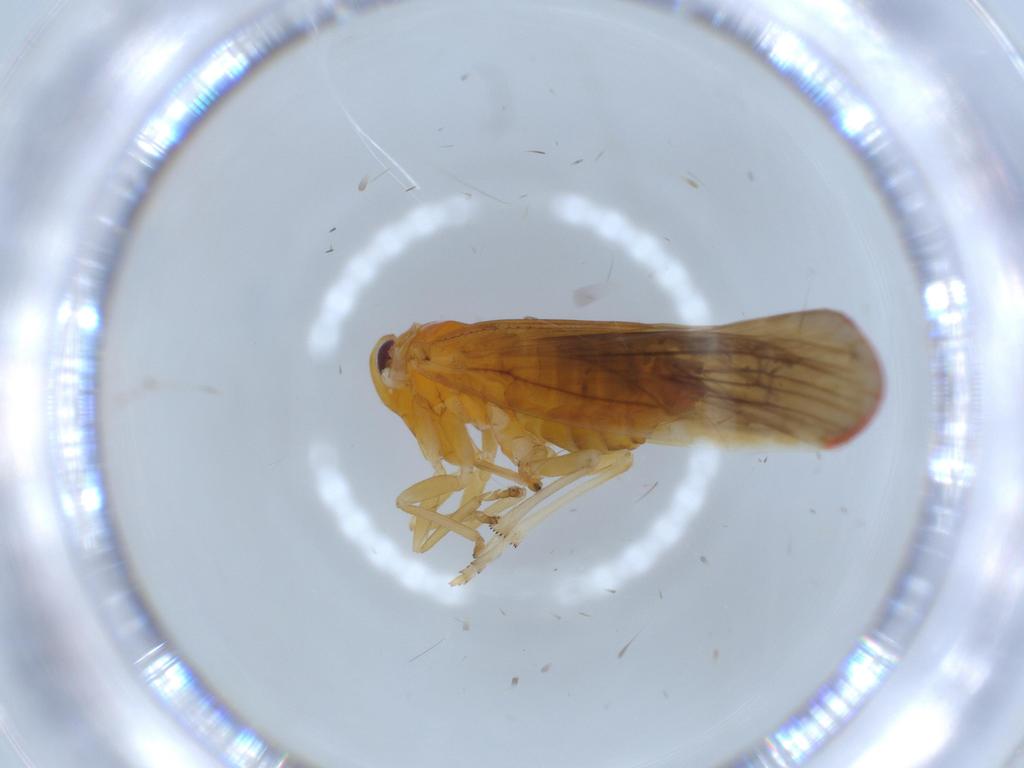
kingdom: Animalia
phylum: Arthropoda
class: Insecta
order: Hemiptera
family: Derbidae
